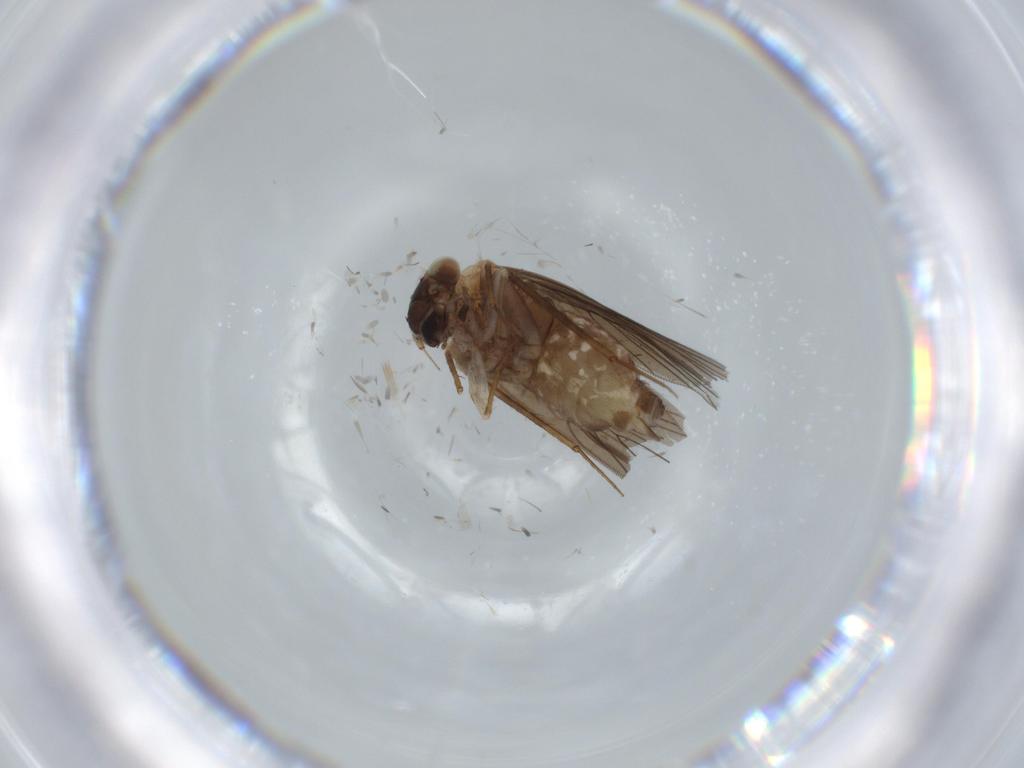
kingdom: Animalia
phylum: Arthropoda
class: Insecta
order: Psocodea
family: Lepidopsocidae
